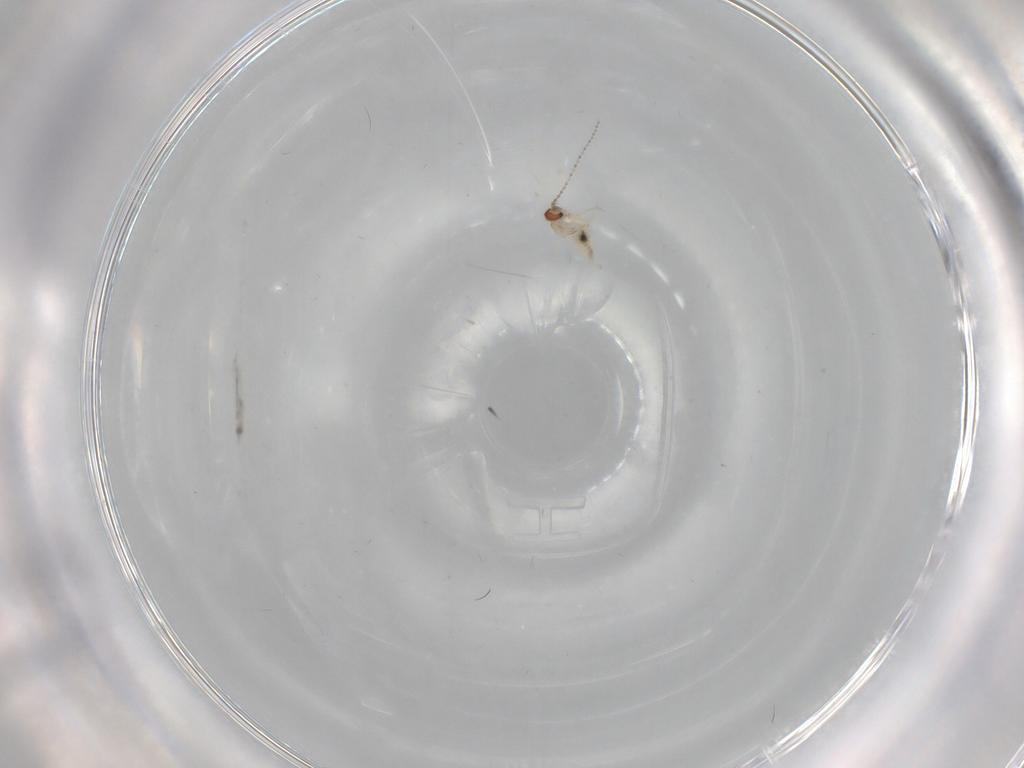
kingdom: Animalia
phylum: Arthropoda
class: Insecta
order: Diptera
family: Cecidomyiidae
